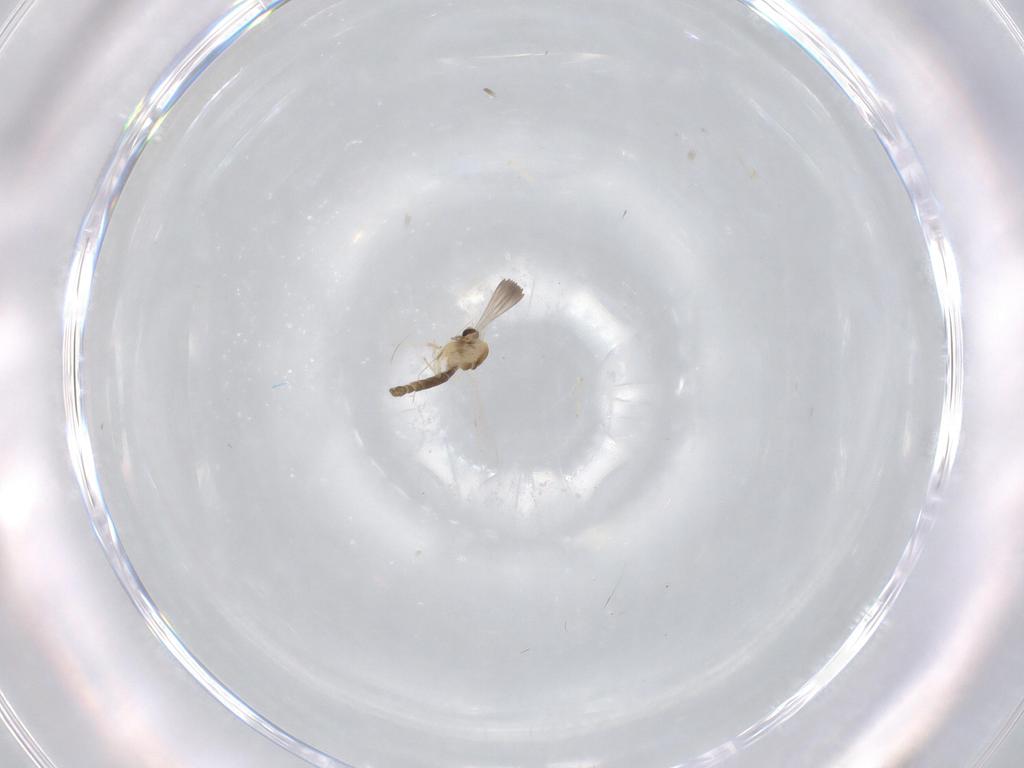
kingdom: Animalia
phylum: Arthropoda
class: Insecta
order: Diptera
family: Chironomidae
